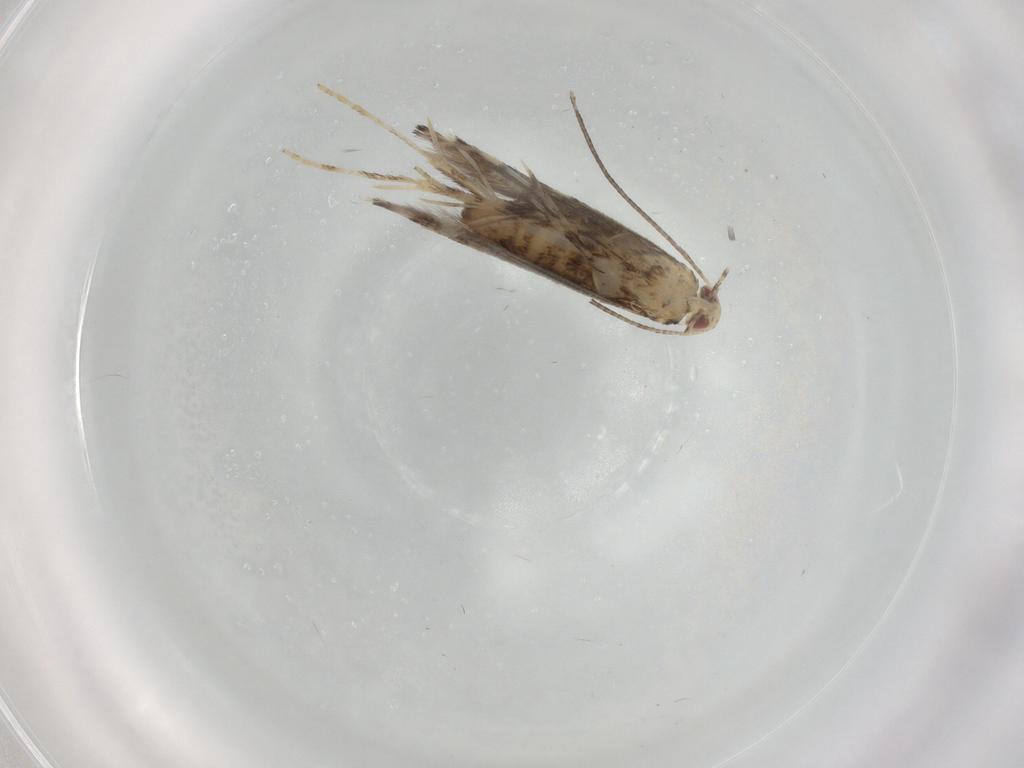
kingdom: Animalia
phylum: Arthropoda
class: Insecta
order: Lepidoptera
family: Gracillariidae
